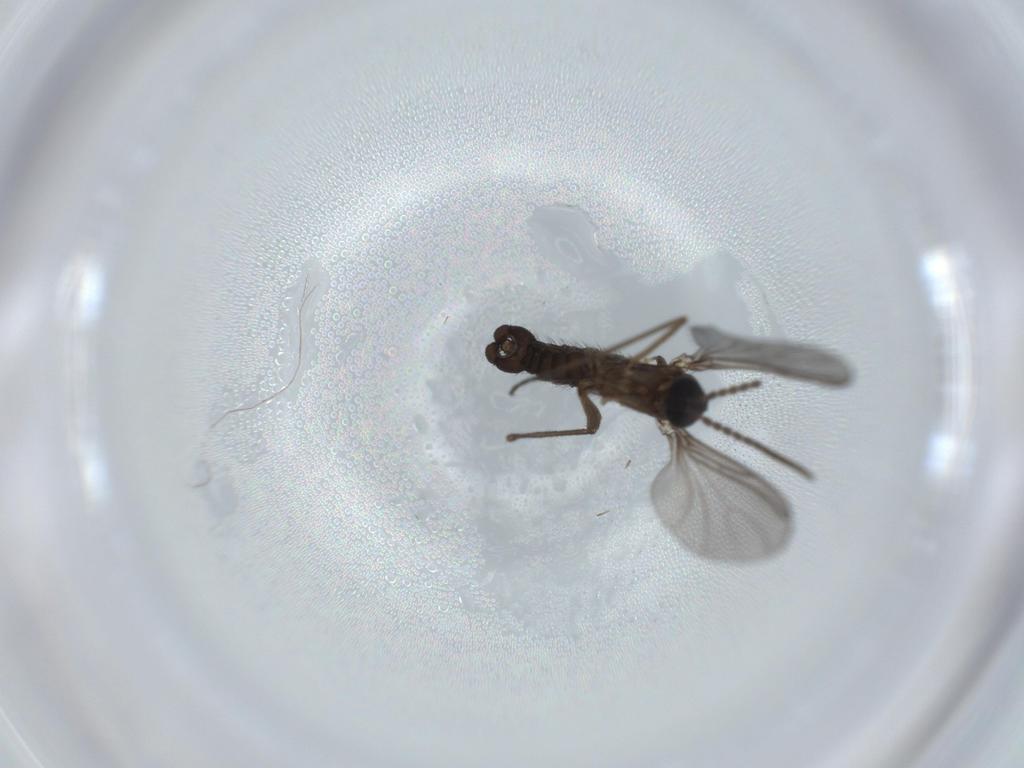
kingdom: Animalia
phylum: Arthropoda
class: Insecta
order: Diptera
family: Sciaridae
